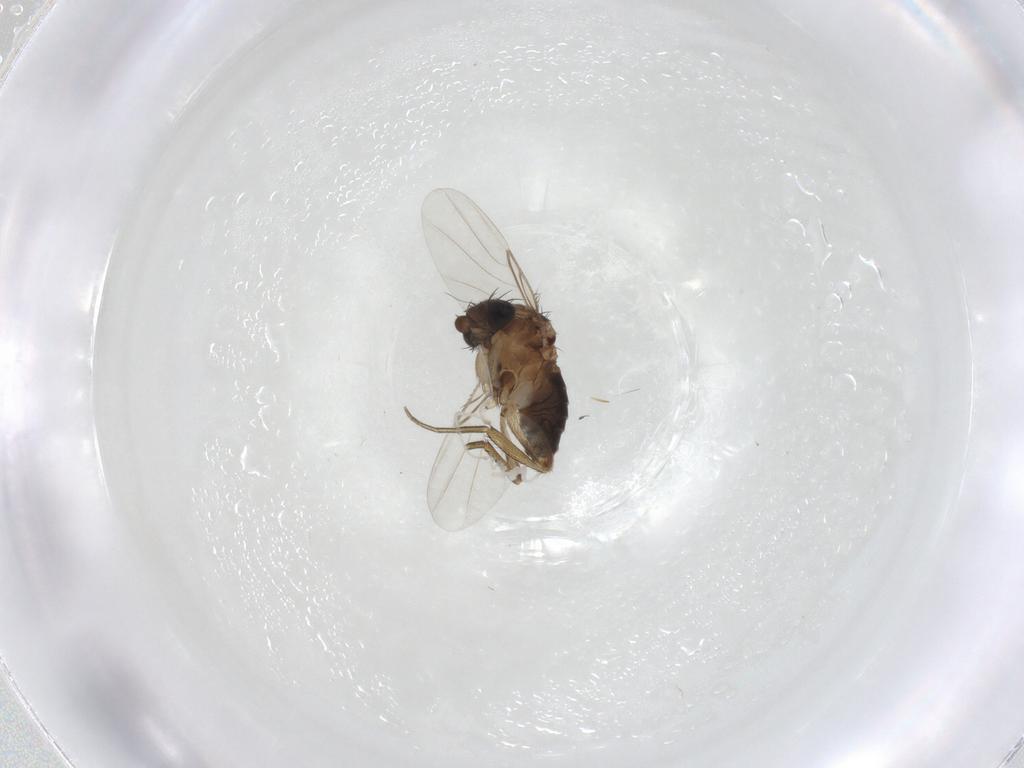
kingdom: Animalia
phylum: Arthropoda
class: Insecta
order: Diptera
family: Phoridae
